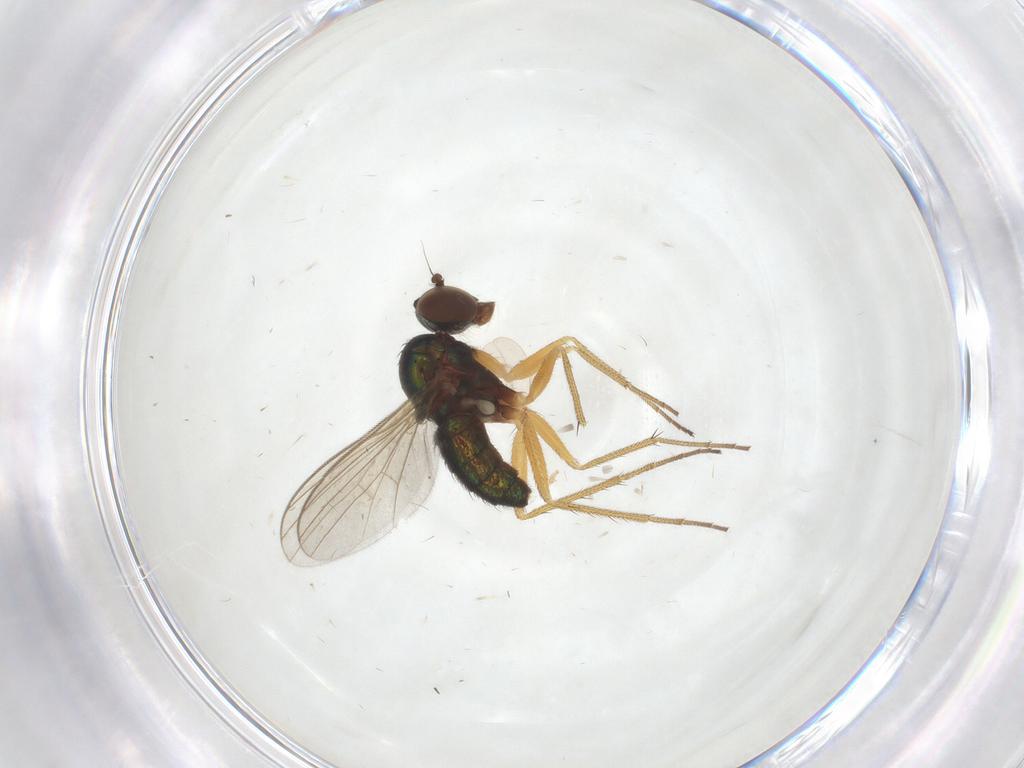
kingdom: Animalia
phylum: Arthropoda
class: Insecta
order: Diptera
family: Dolichopodidae
